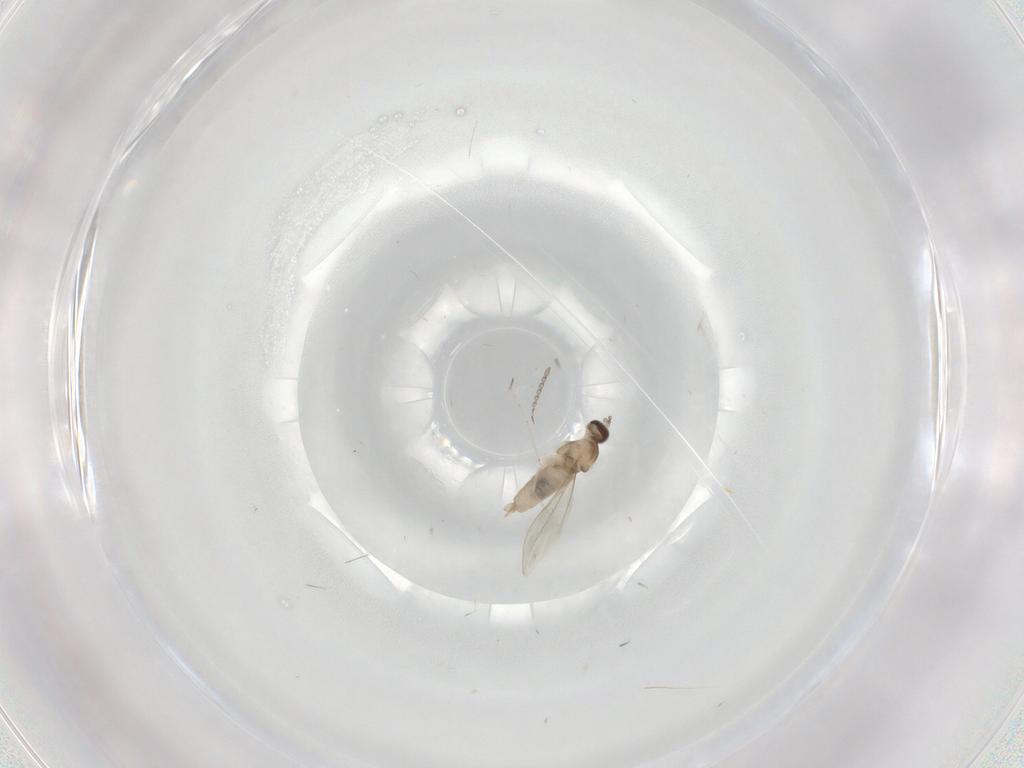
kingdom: Animalia
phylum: Arthropoda
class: Insecta
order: Diptera
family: Cecidomyiidae
